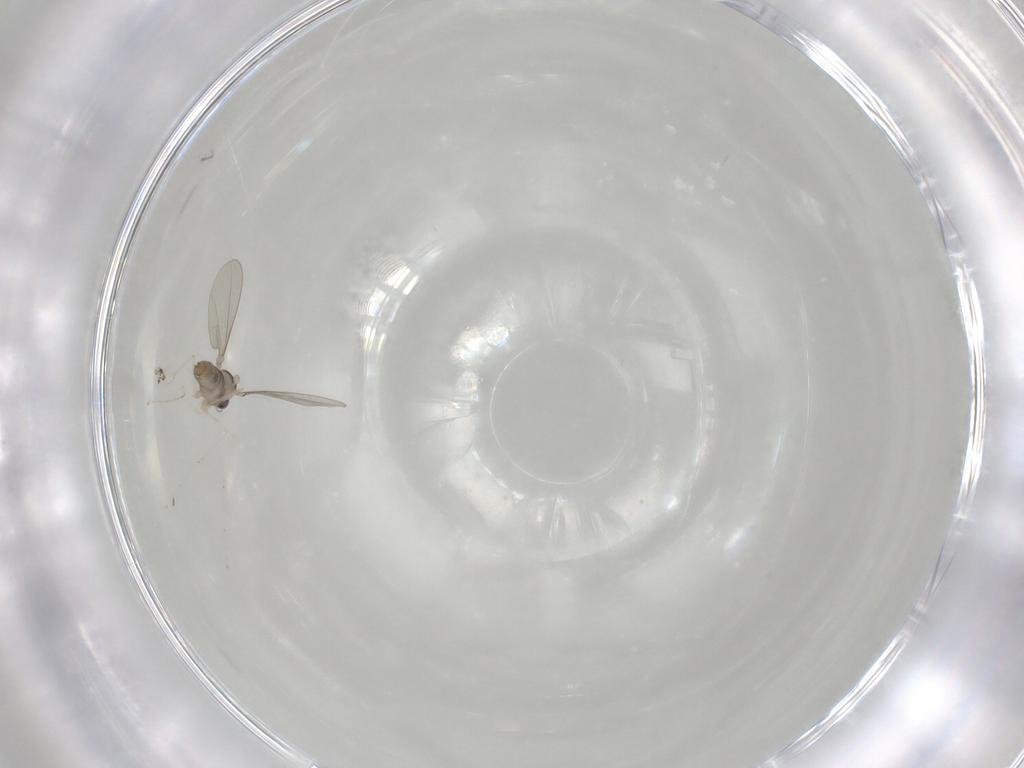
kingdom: Animalia
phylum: Arthropoda
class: Insecta
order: Diptera
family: Cecidomyiidae
